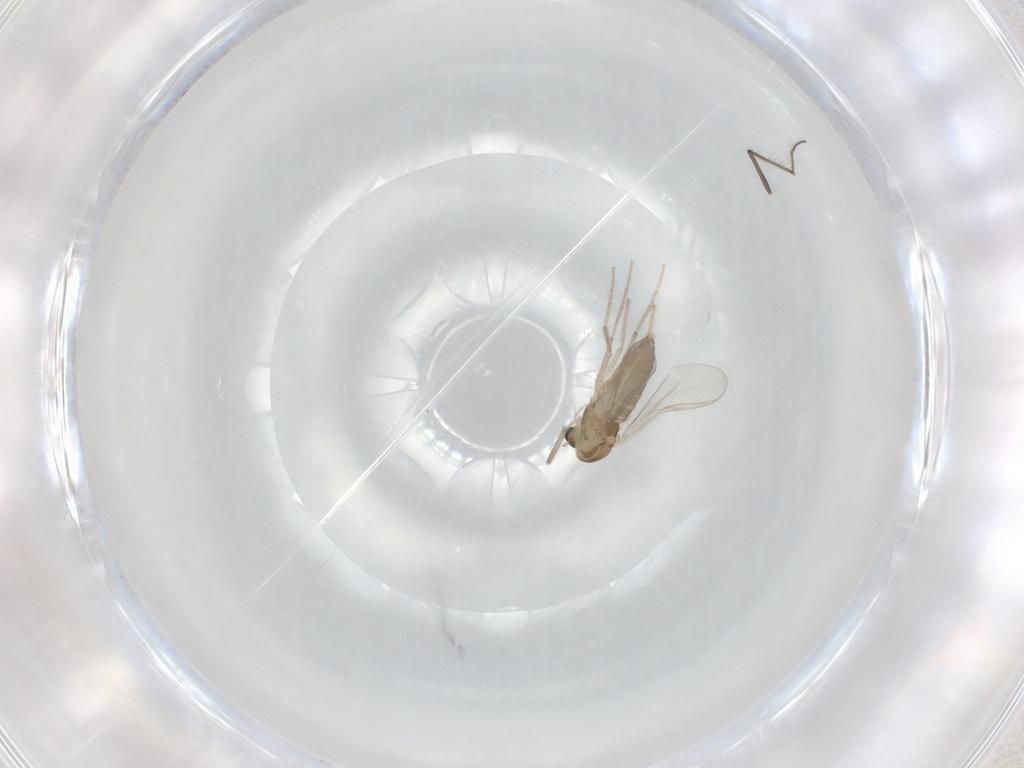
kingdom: Animalia
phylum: Arthropoda
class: Insecta
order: Diptera
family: Chironomidae
